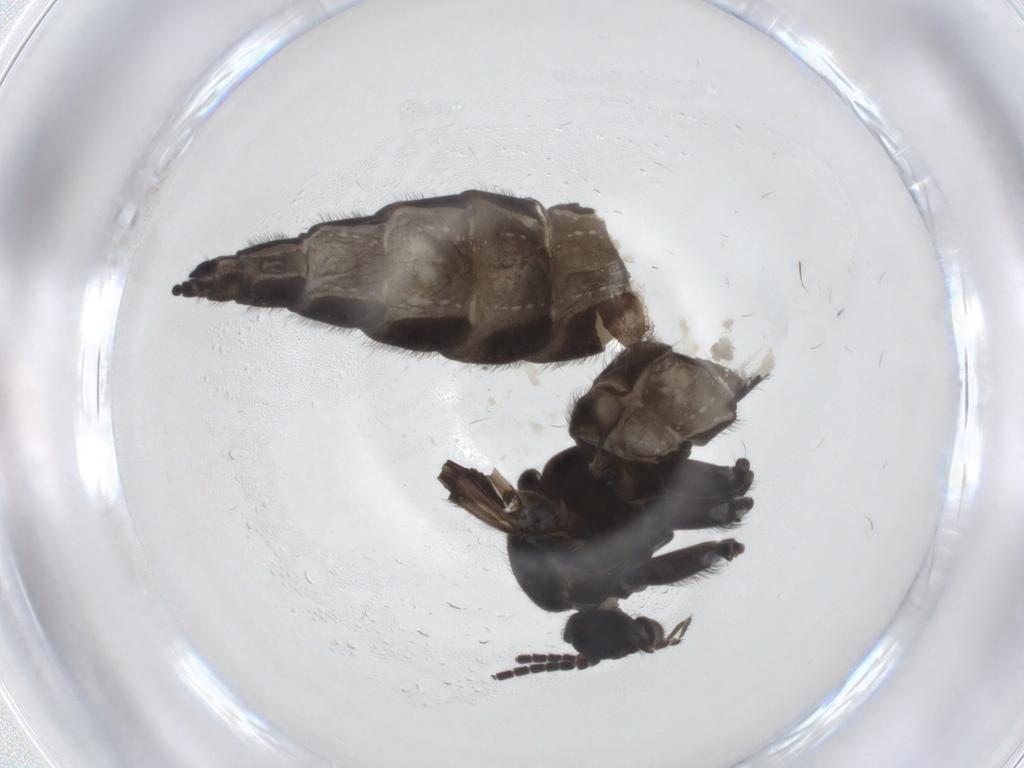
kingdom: Animalia
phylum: Arthropoda
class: Insecta
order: Diptera
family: Sciaridae
